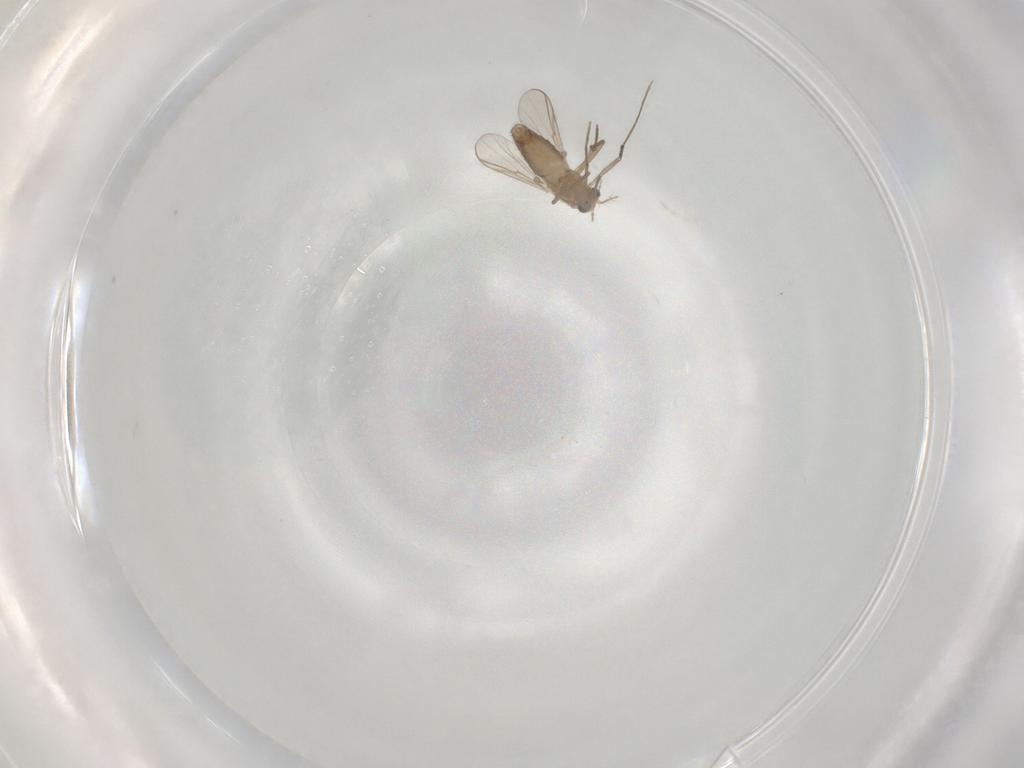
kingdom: Animalia
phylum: Arthropoda
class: Insecta
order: Diptera
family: Chironomidae
